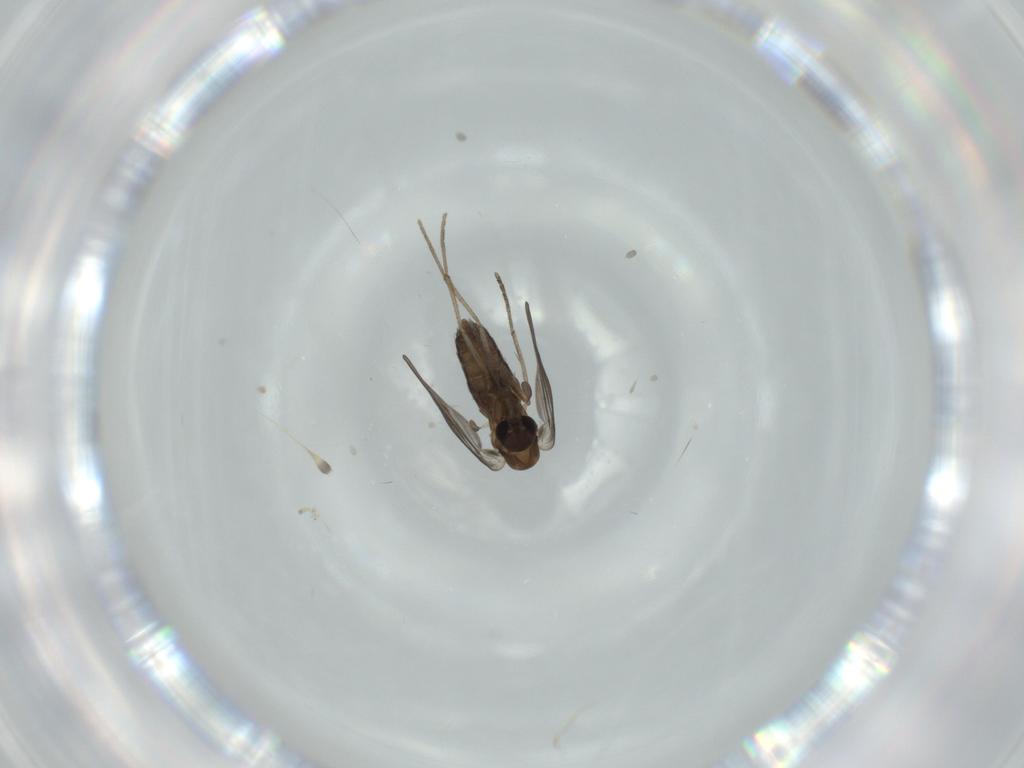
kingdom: Animalia
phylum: Arthropoda
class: Insecta
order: Diptera
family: Psychodidae
